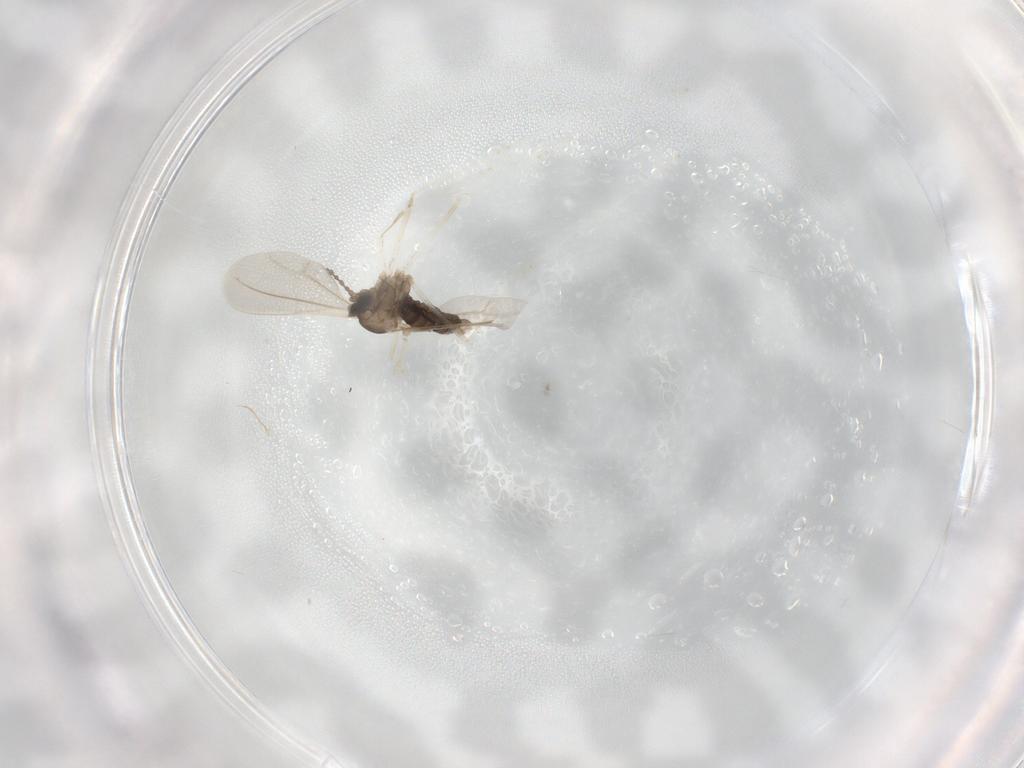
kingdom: Animalia
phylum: Arthropoda
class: Insecta
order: Diptera
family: Cecidomyiidae
